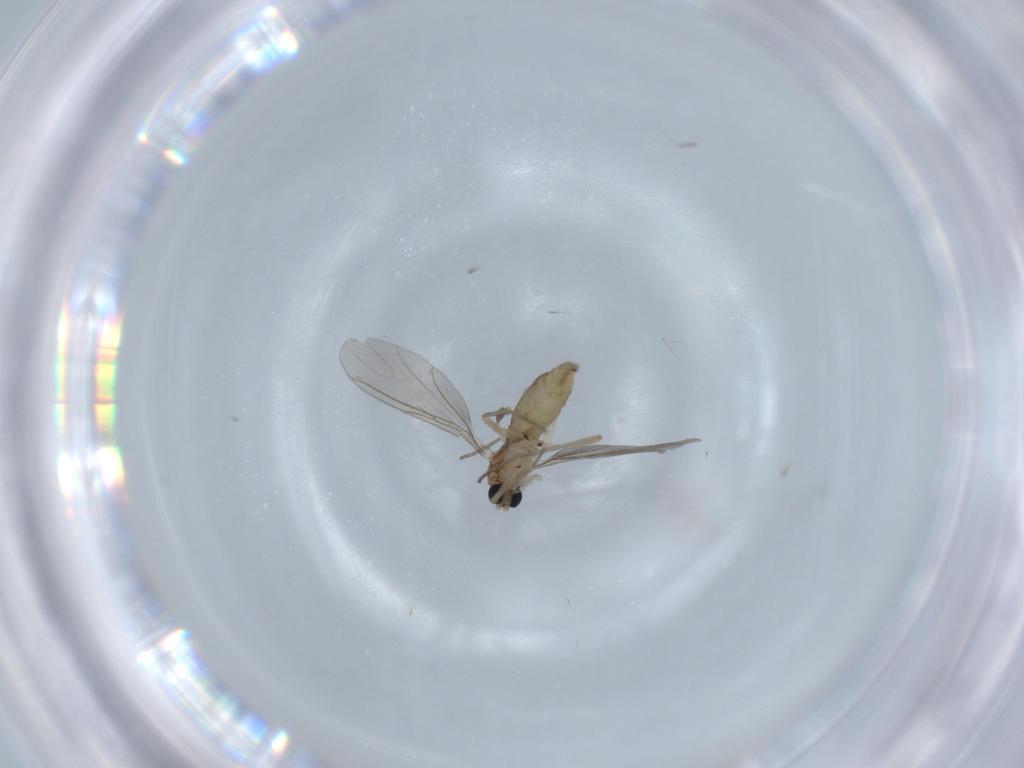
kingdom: Animalia
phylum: Arthropoda
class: Insecta
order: Diptera
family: Sciaridae
